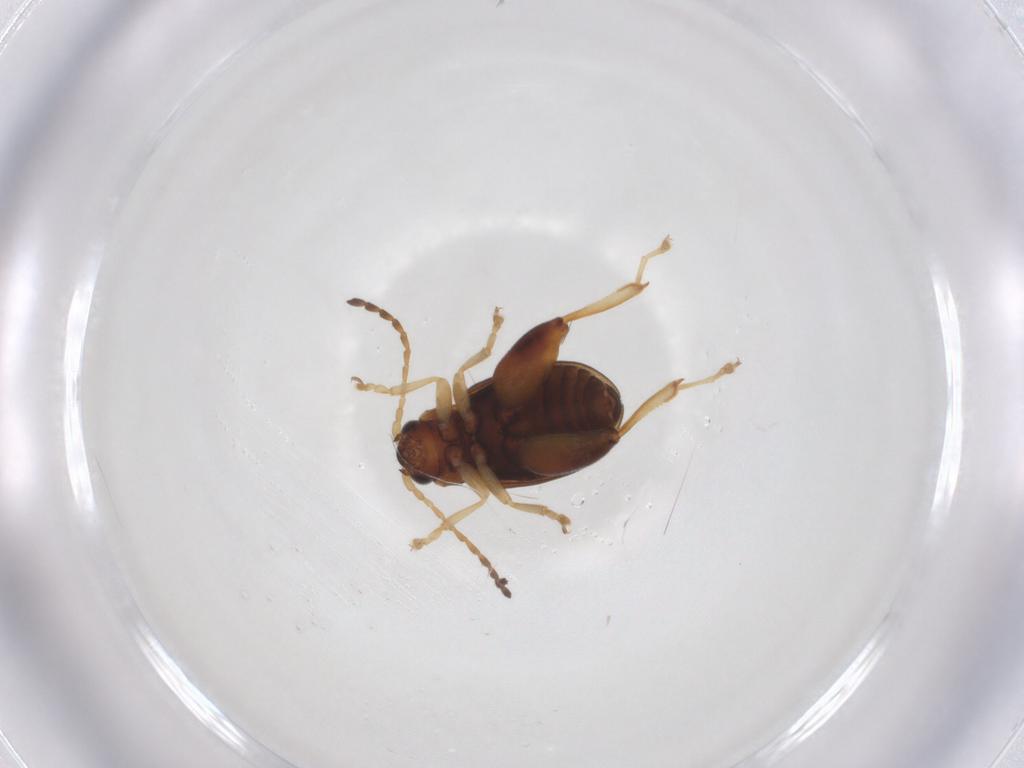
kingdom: Animalia
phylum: Arthropoda
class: Insecta
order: Coleoptera
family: Chrysomelidae
